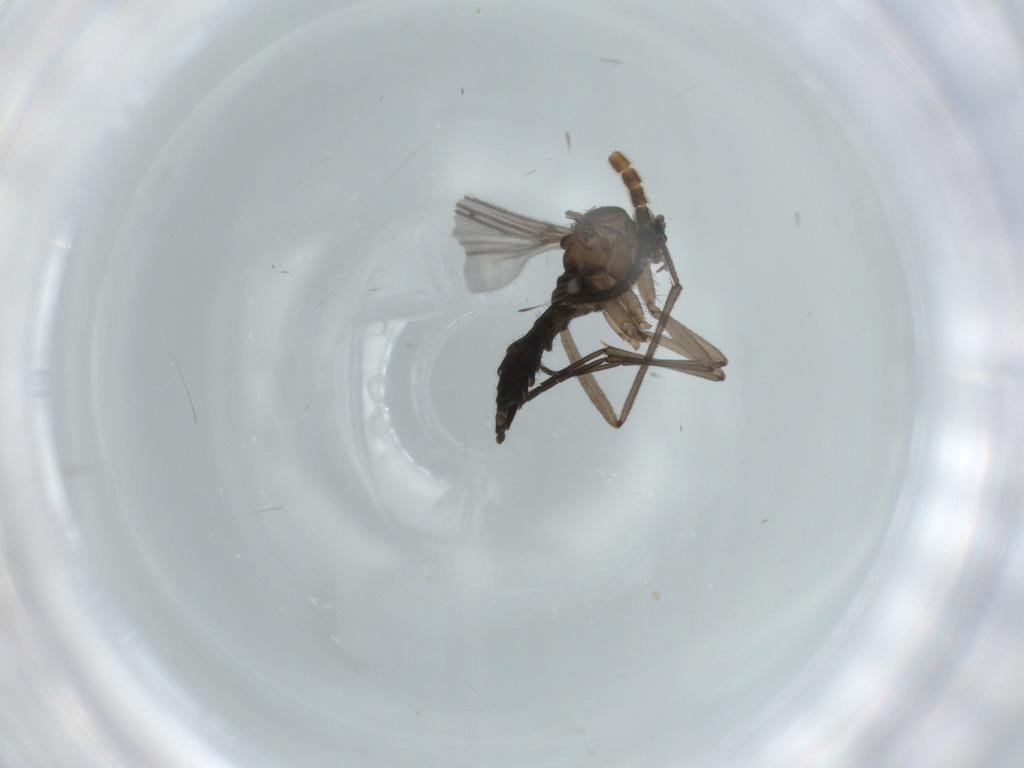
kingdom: Animalia
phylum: Arthropoda
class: Insecta
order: Diptera
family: Sciaridae
